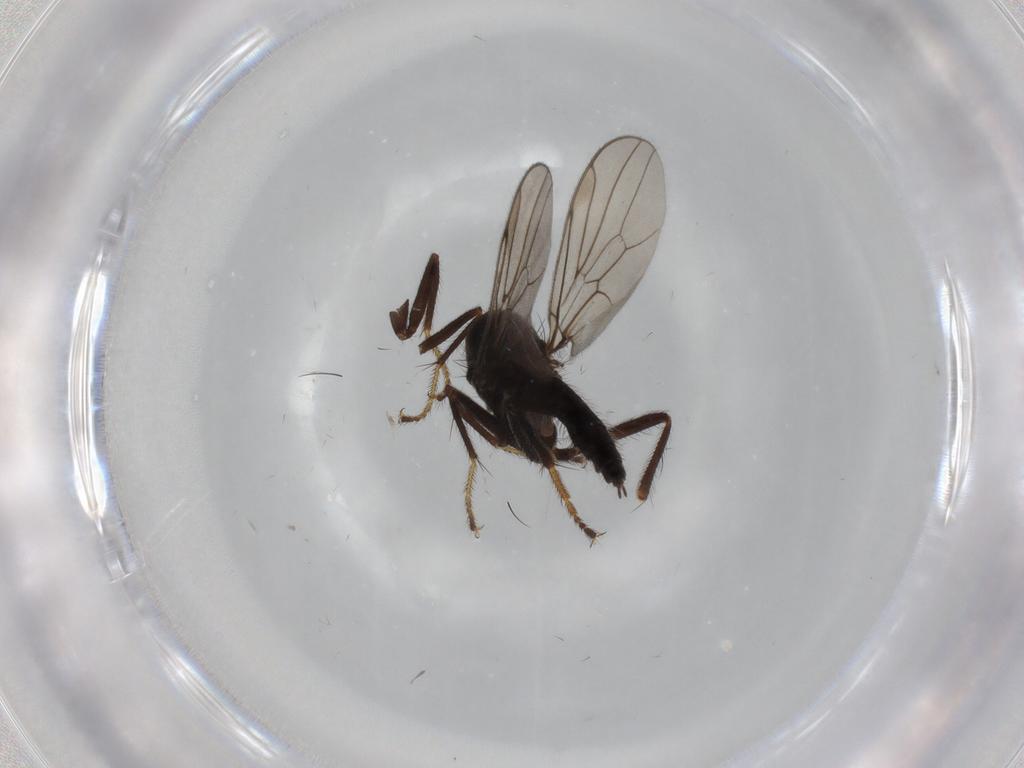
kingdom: Animalia
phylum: Arthropoda
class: Insecta
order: Diptera
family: Hybotidae
